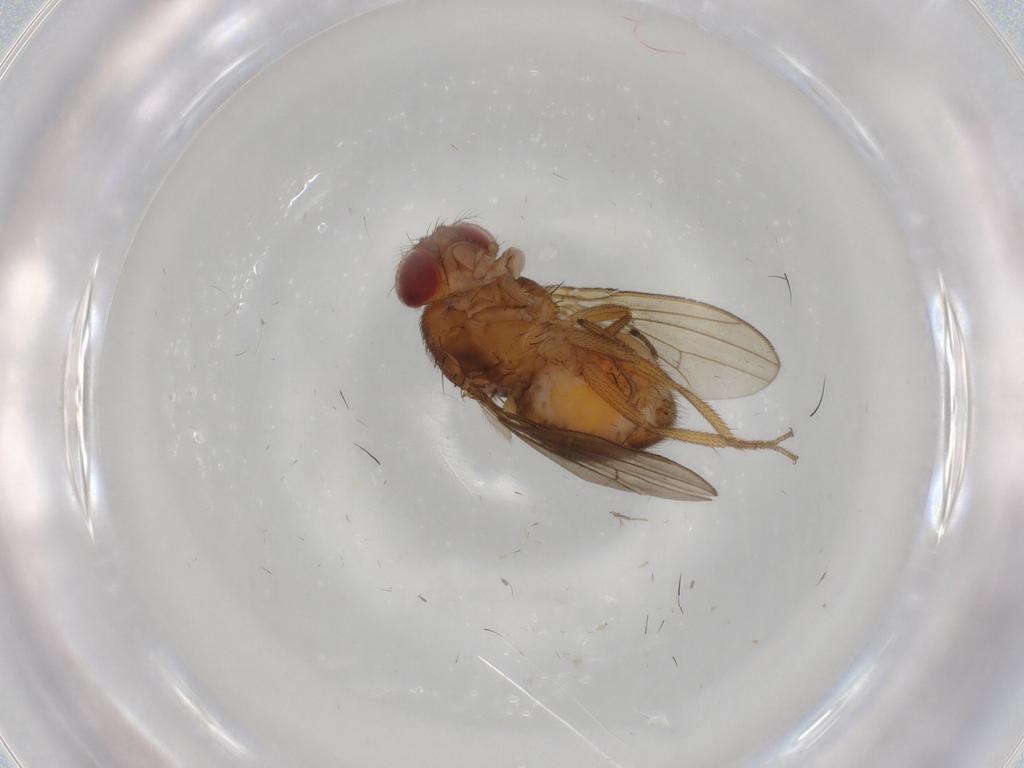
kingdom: Animalia
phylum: Arthropoda
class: Insecta
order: Diptera
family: Drosophilidae
